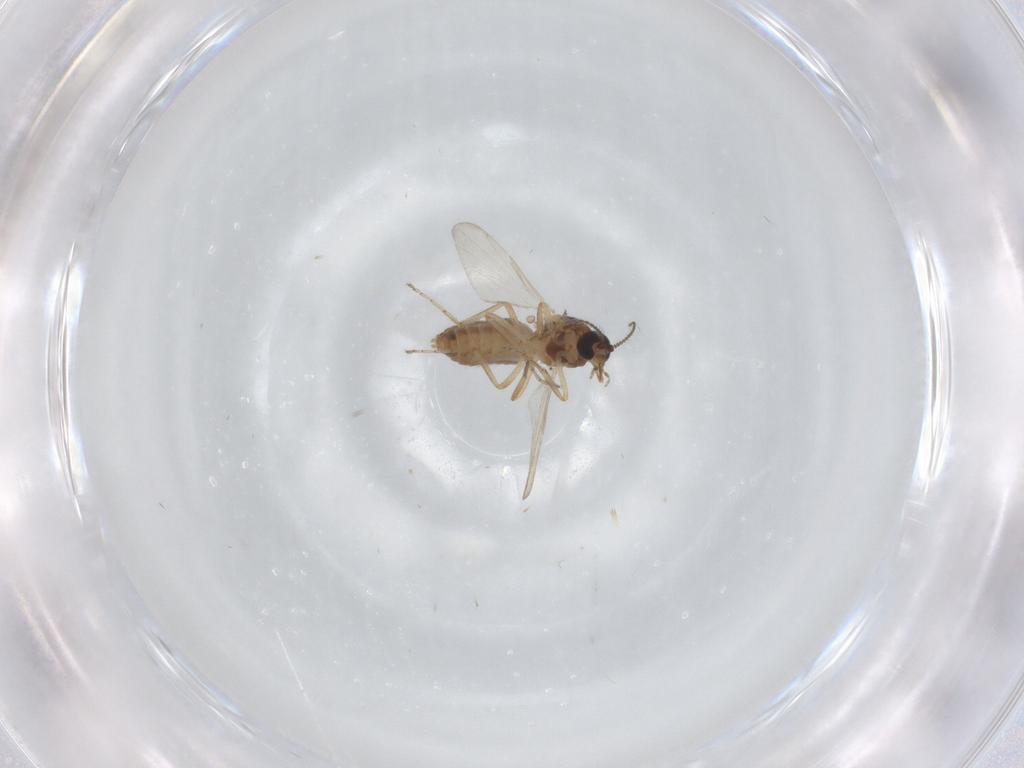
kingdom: Animalia
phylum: Arthropoda
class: Insecta
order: Diptera
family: Ceratopogonidae
